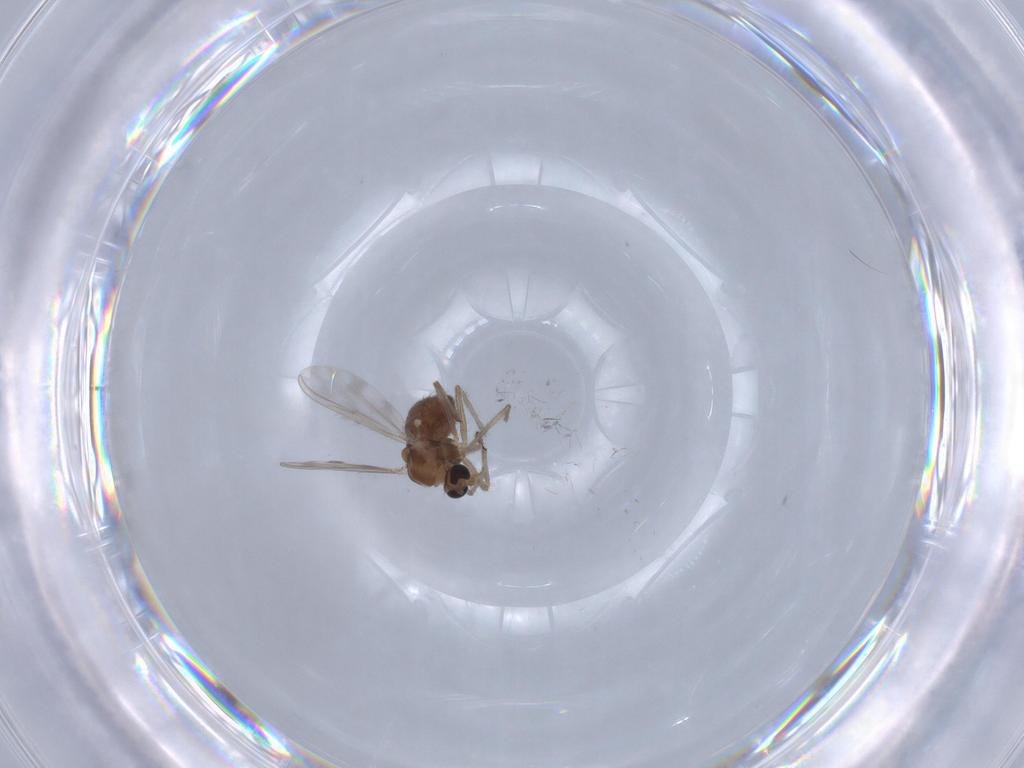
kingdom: Animalia
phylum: Arthropoda
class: Insecta
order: Diptera
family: Chironomidae
